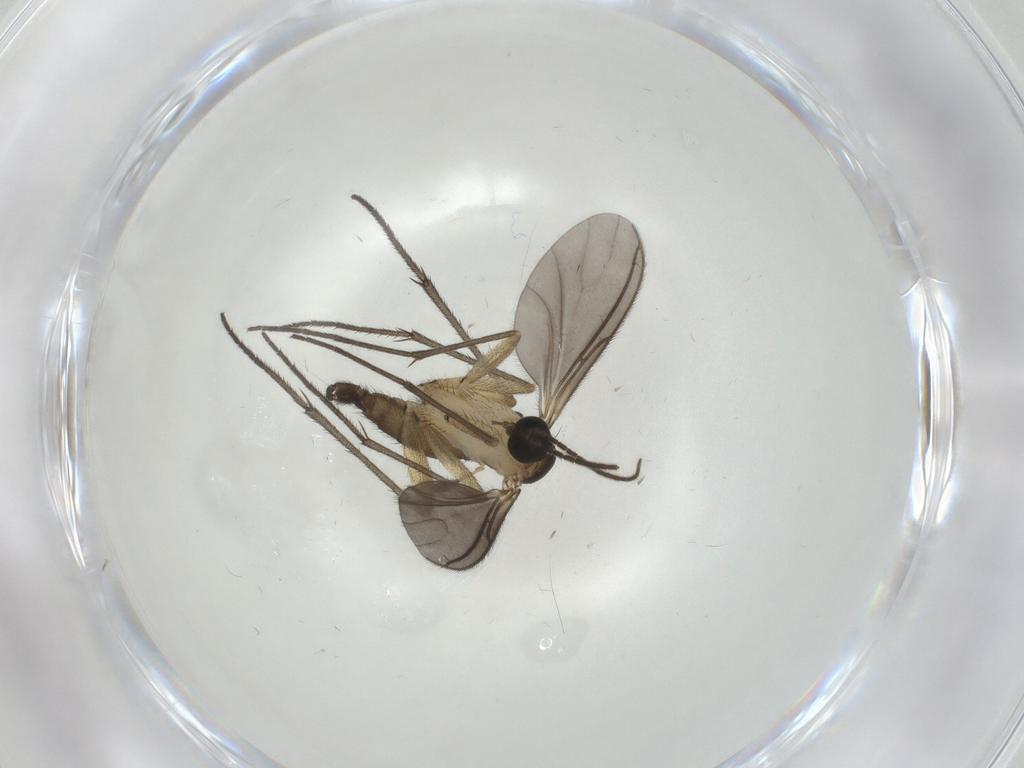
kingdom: Animalia
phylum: Arthropoda
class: Insecta
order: Diptera
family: Sciaridae
